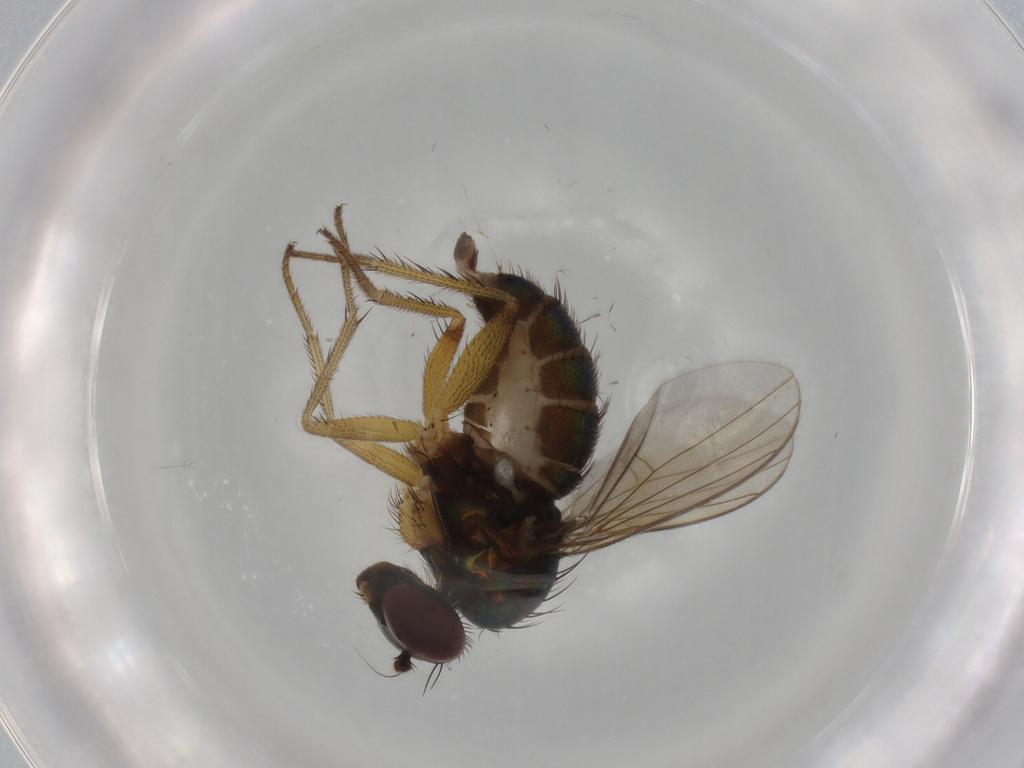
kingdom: Animalia
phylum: Arthropoda
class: Insecta
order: Diptera
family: Dolichopodidae
